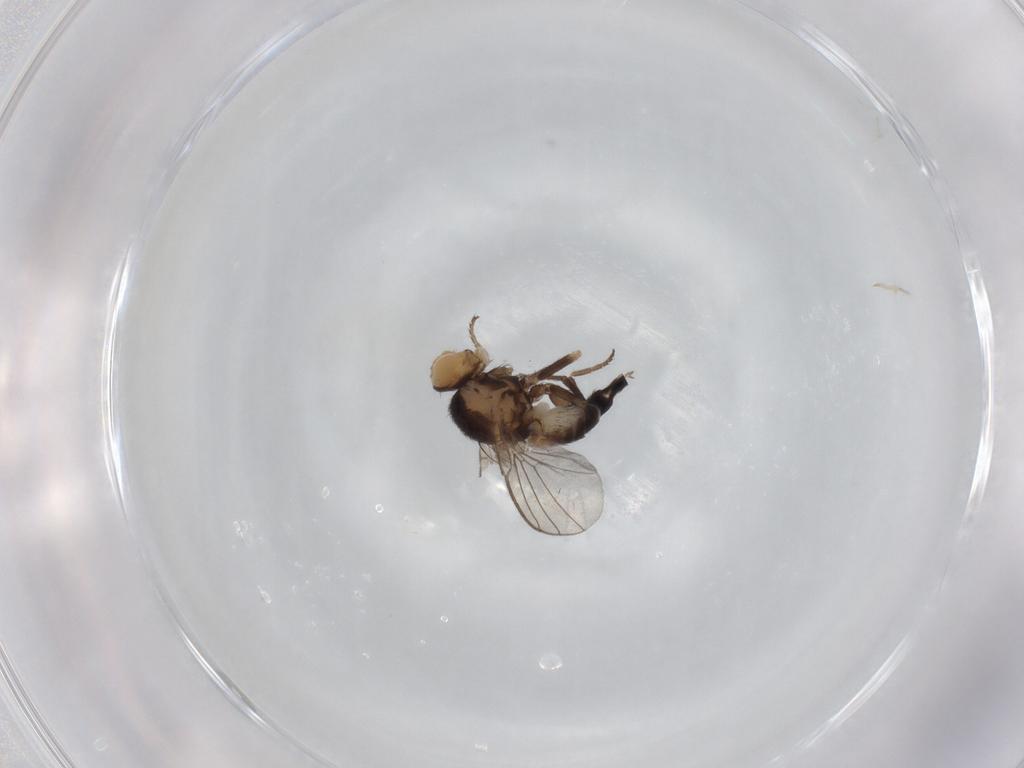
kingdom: Animalia
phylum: Arthropoda
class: Insecta
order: Diptera
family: Agromyzidae
